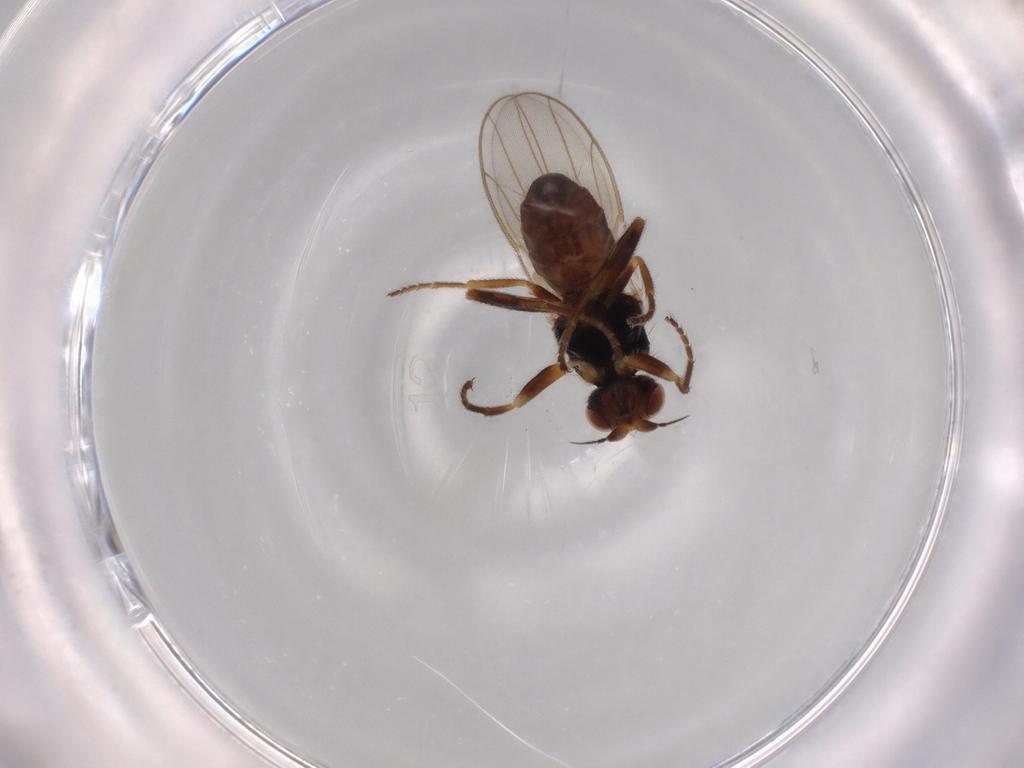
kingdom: Animalia
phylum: Arthropoda
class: Insecta
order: Diptera
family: Chloropidae
